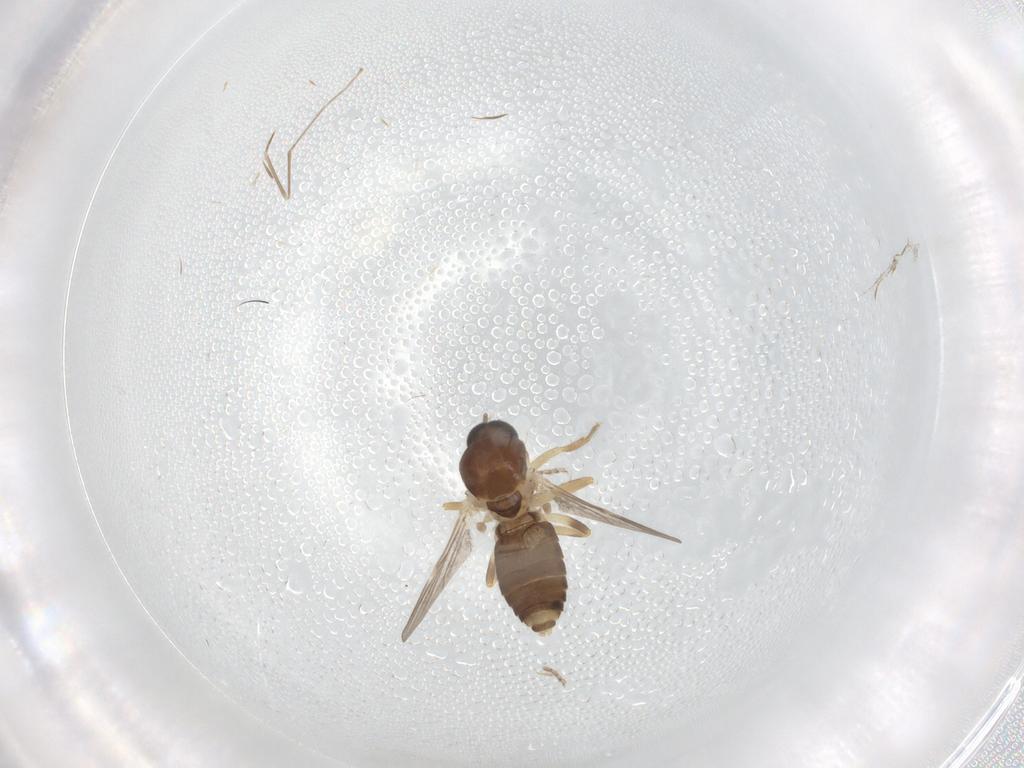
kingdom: Animalia
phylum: Arthropoda
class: Insecta
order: Diptera
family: Cecidomyiidae
